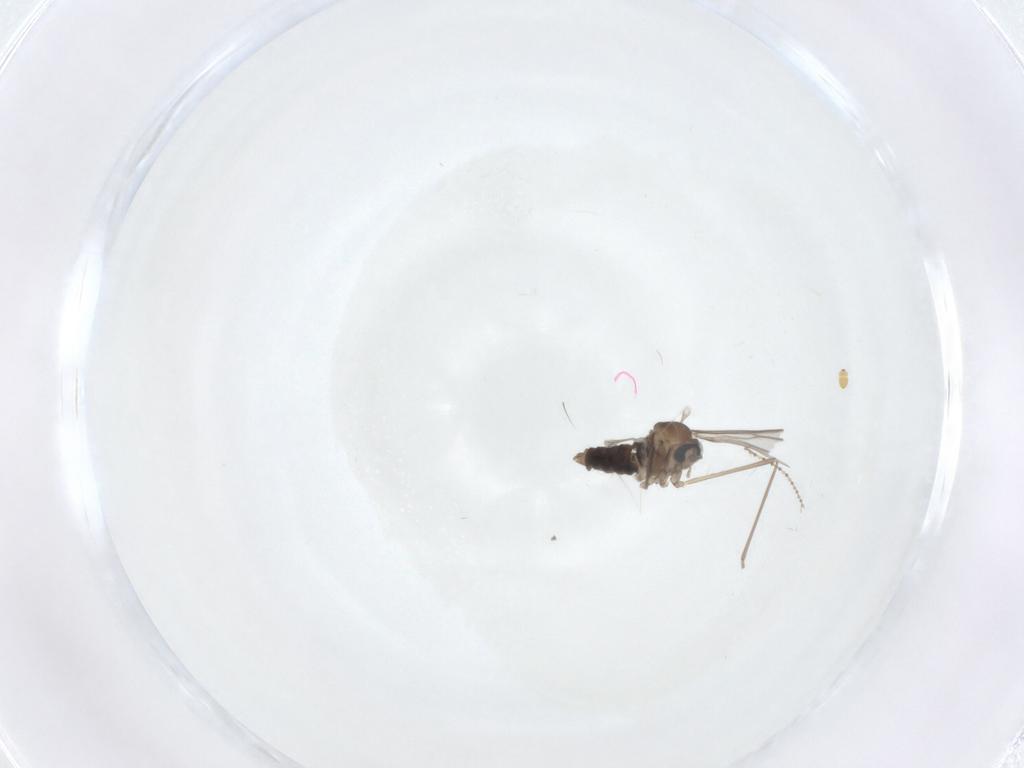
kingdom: Animalia
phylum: Arthropoda
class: Insecta
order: Diptera
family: Cecidomyiidae
